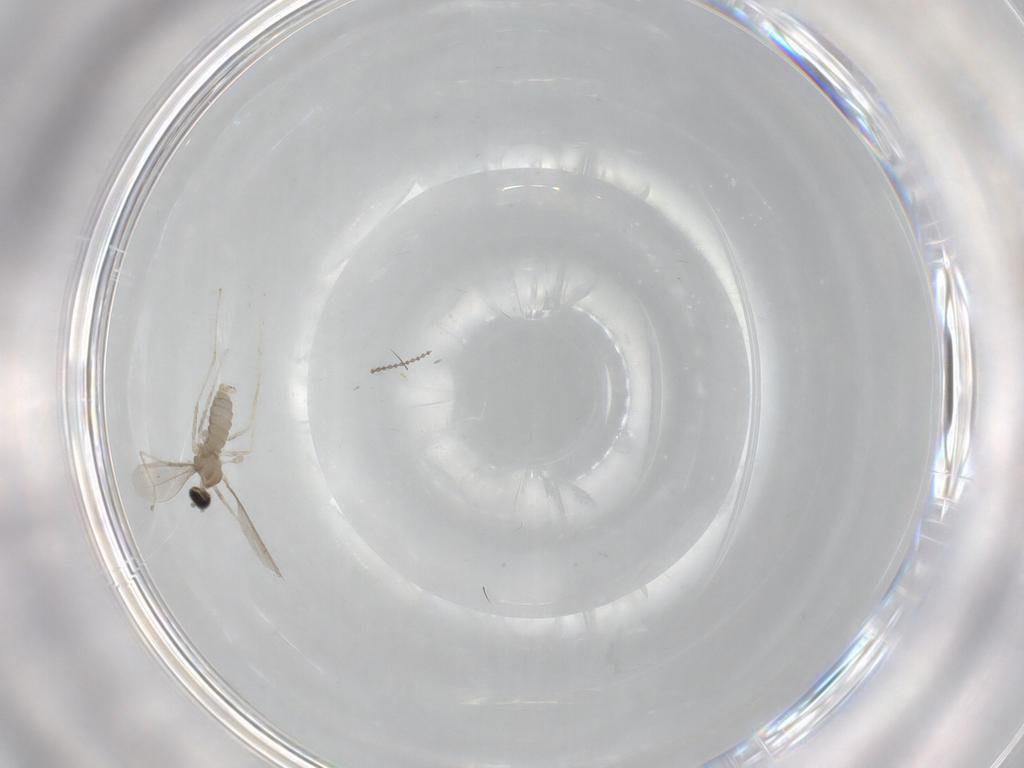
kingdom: Animalia
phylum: Arthropoda
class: Insecta
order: Diptera
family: Cecidomyiidae
